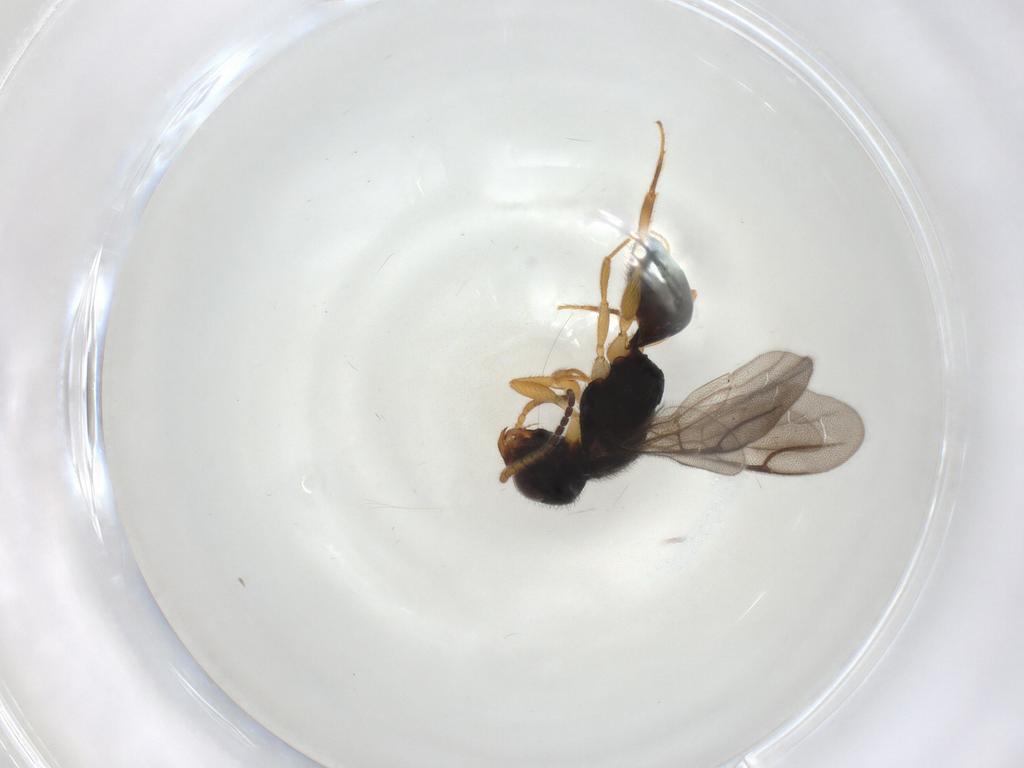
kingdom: Animalia
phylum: Arthropoda
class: Insecta
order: Hymenoptera
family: Bethylidae
